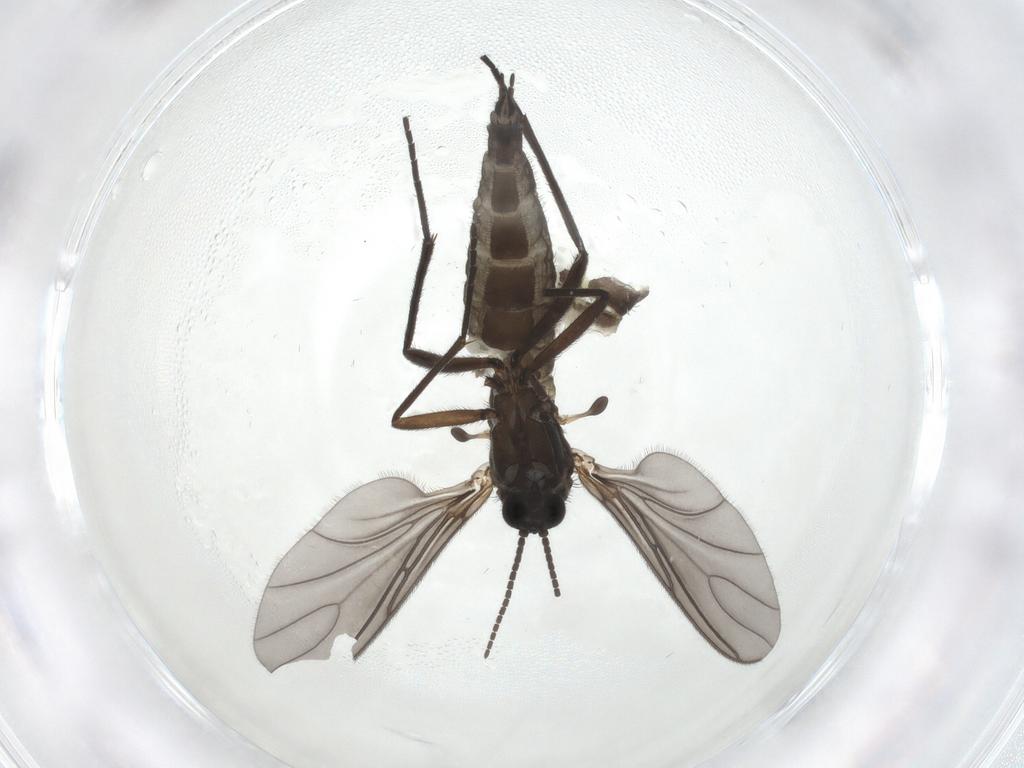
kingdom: Animalia
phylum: Arthropoda
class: Insecta
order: Diptera
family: Sciaridae
